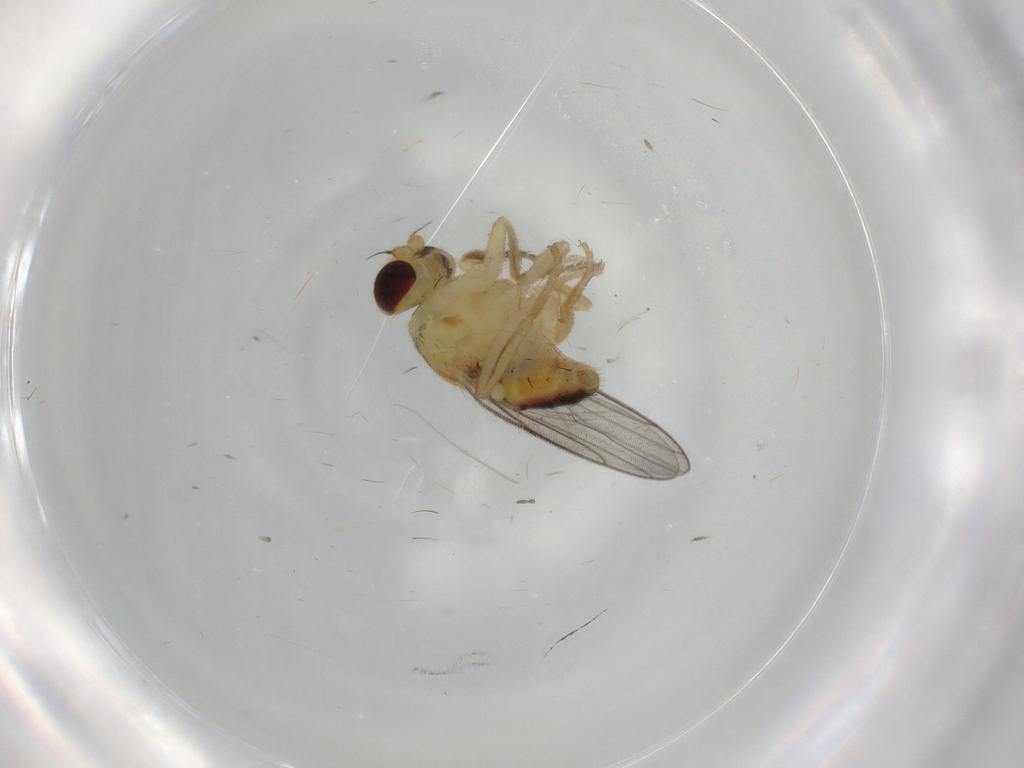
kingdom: Animalia
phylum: Arthropoda
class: Insecta
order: Diptera
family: Chloropidae
